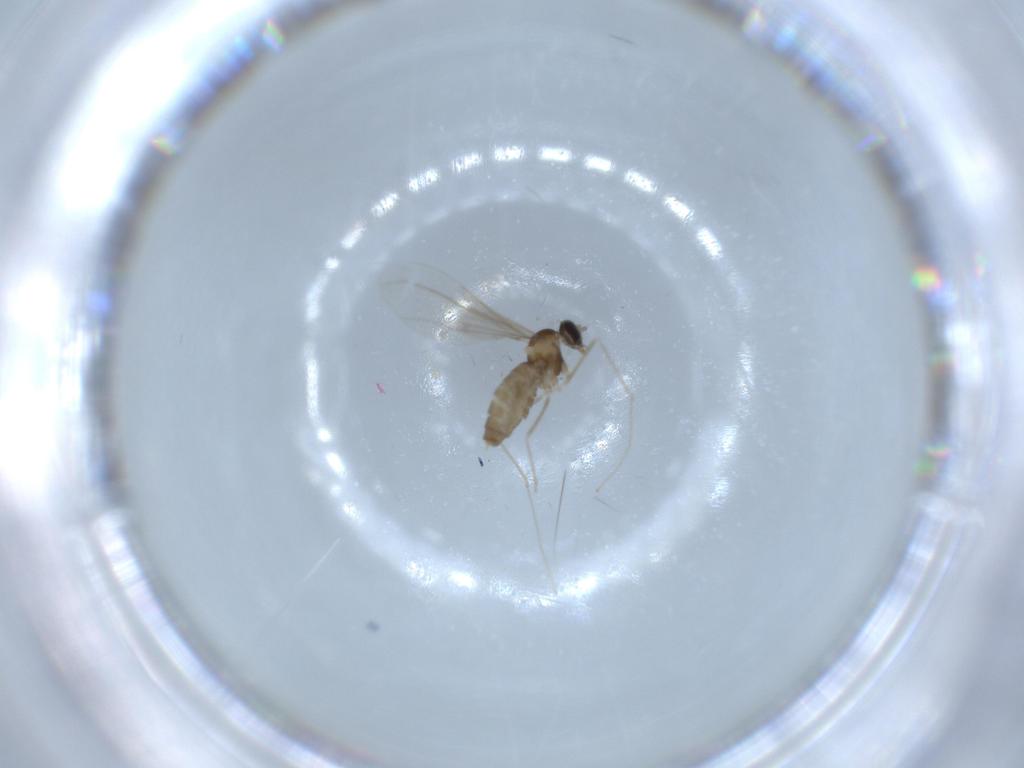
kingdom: Animalia
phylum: Arthropoda
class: Insecta
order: Diptera
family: Cecidomyiidae
